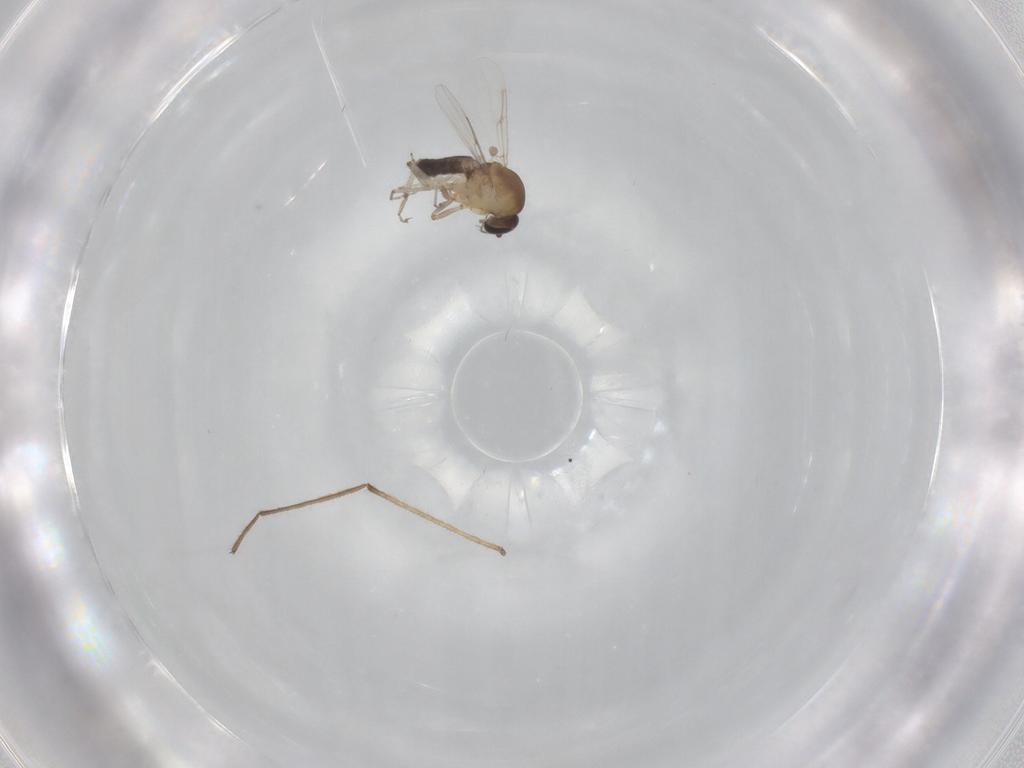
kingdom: Animalia
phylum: Arthropoda
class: Insecta
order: Diptera
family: Ceratopogonidae
